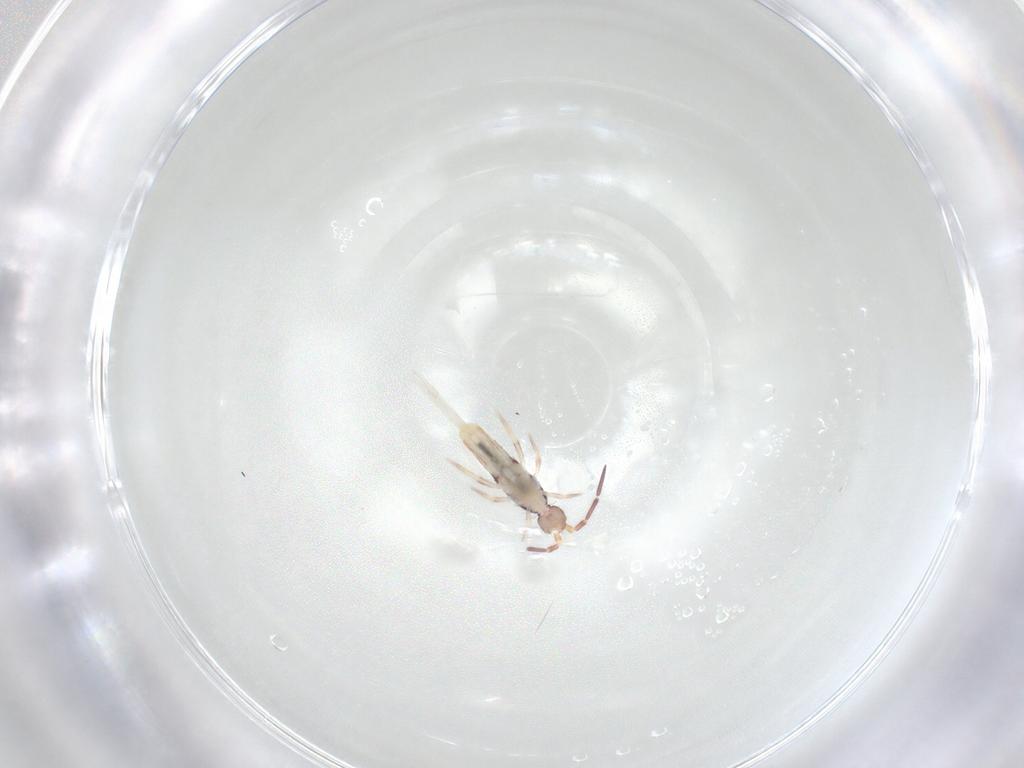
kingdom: Animalia
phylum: Arthropoda
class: Collembola
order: Entomobryomorpha
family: Entomobryidae
